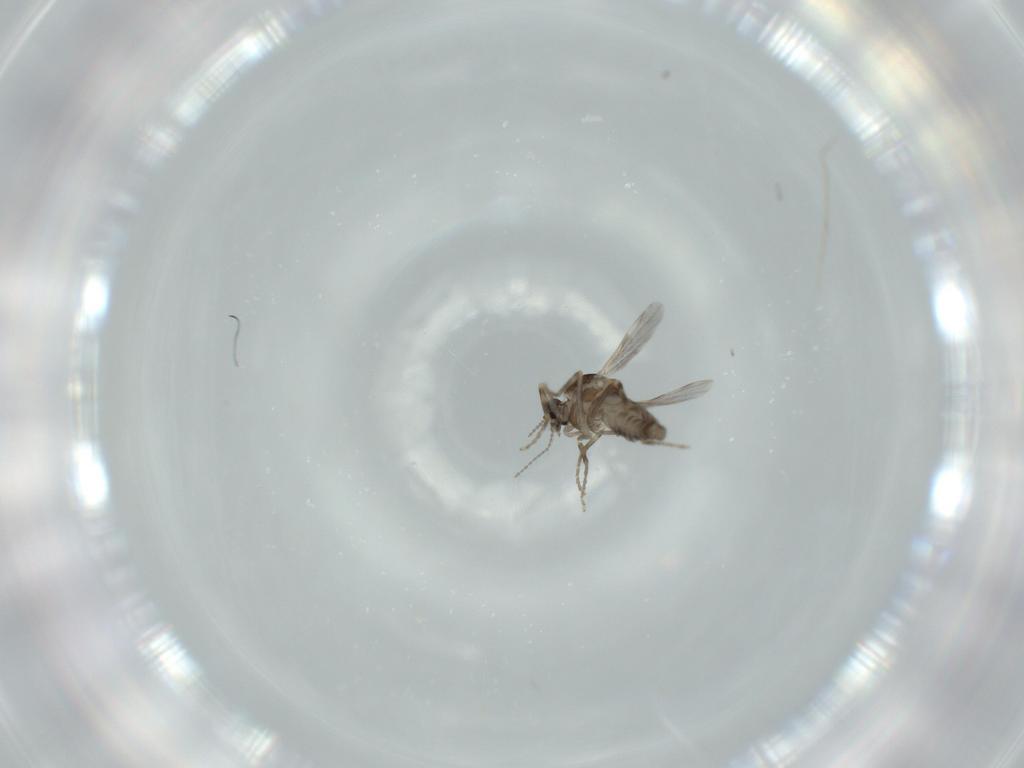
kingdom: Animalia
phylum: Arthropoda
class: Insecta
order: Diptera
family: Ceratopogonidae
